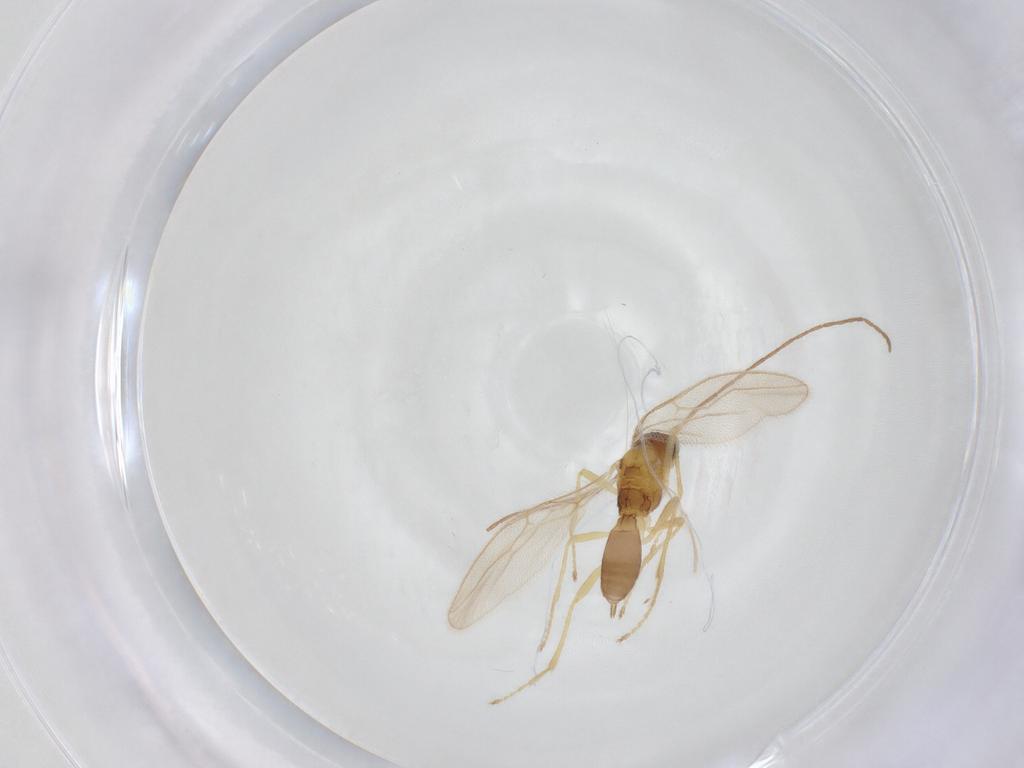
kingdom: Animalia
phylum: Arthropoda
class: Insecta
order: Hymenoptera
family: Braconidae
